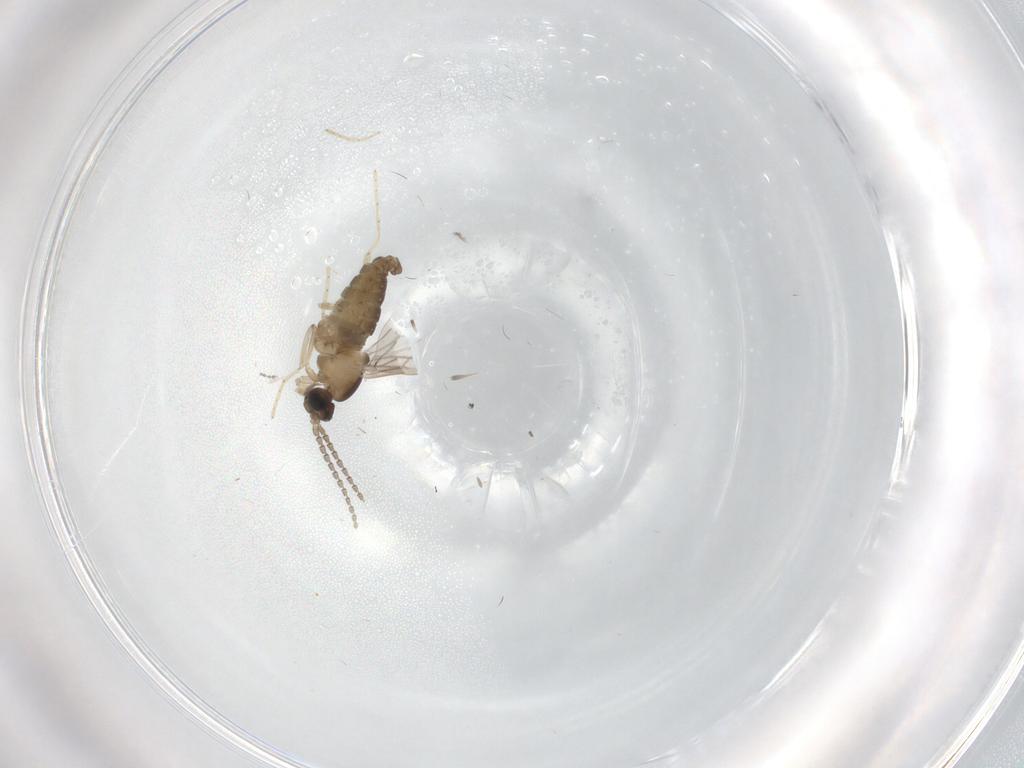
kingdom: Animalia
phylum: Arthropoda
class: Insecta
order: Diptera
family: Cecidomyiidae
